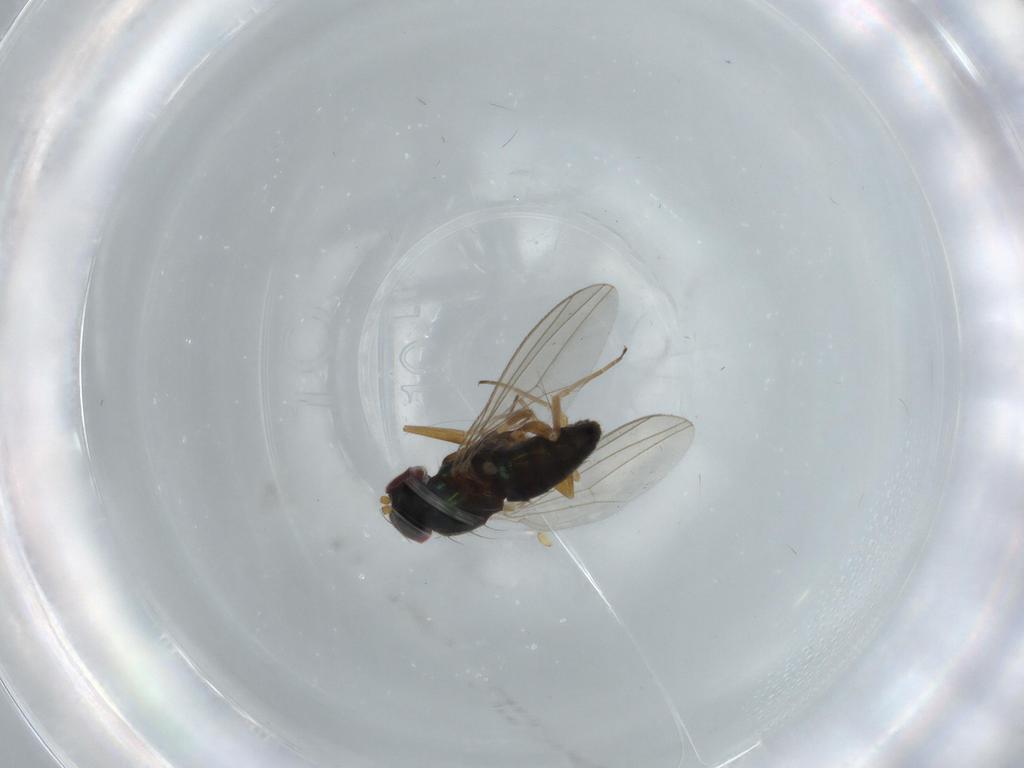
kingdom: Animalia
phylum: Arthropoda
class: Insecta
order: Diptera
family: Dolichopodidae
